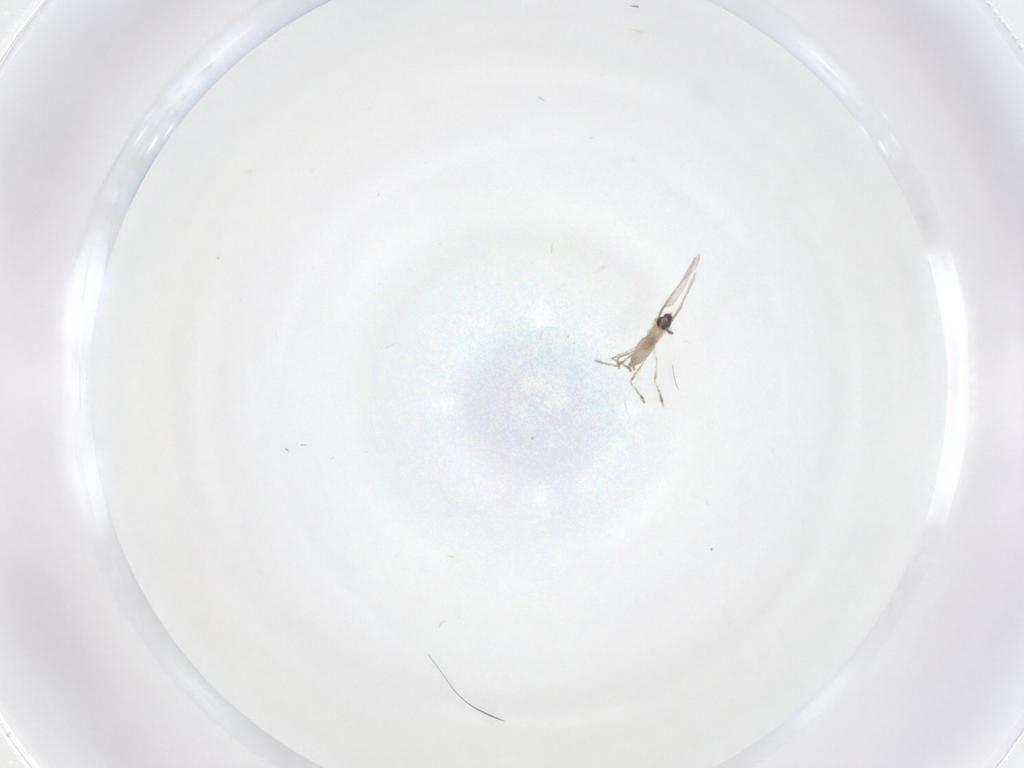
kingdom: Animalia
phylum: Arthropoda
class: Insecta
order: Diptera
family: Cecidomyiidae
